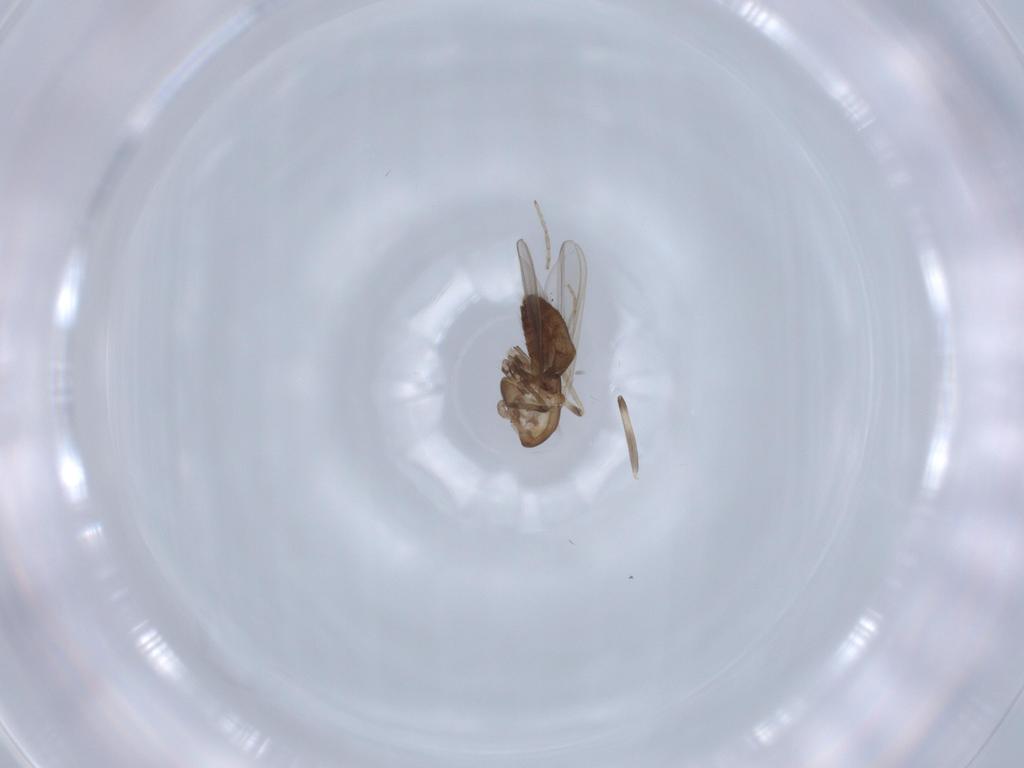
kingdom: Animalia
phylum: Arthropoda
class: Insecta
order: Diptera
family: Chironomidae
